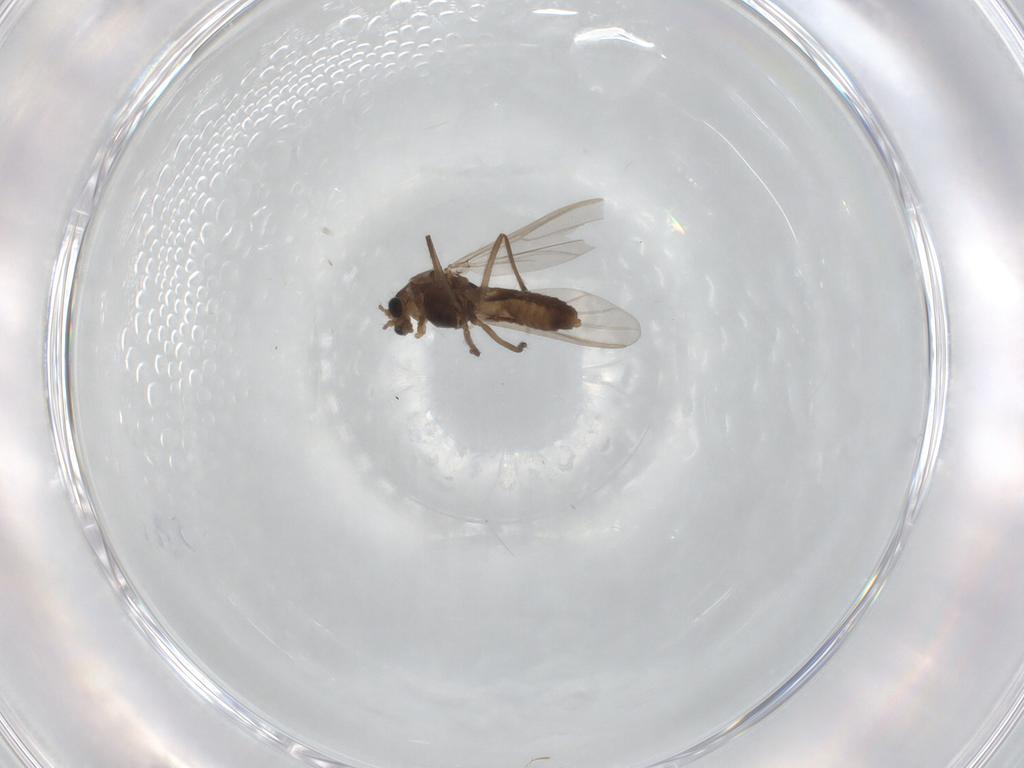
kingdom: Animalia
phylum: Arthropoda
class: Insecta
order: Diptera
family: Chironomidae
